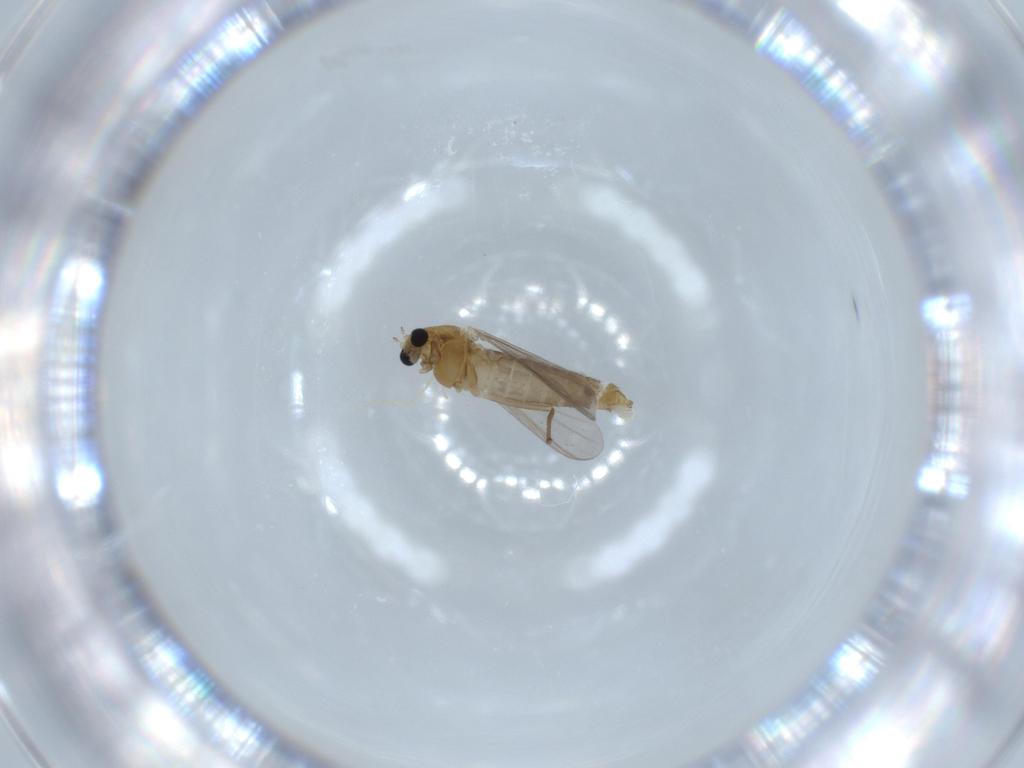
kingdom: Animalia
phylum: Arthropoda
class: Insecta
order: Diptera
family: Chironomidae
